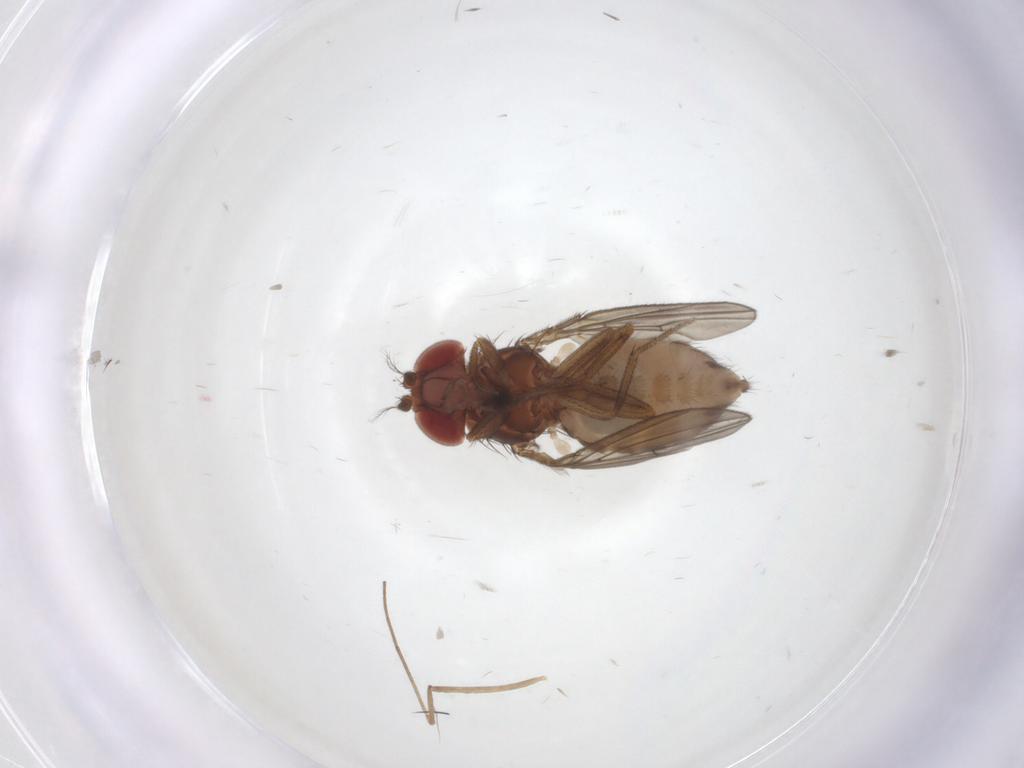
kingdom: Animalia
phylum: Arthropoda
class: Insecta
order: Diptera
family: Drosophilidae
